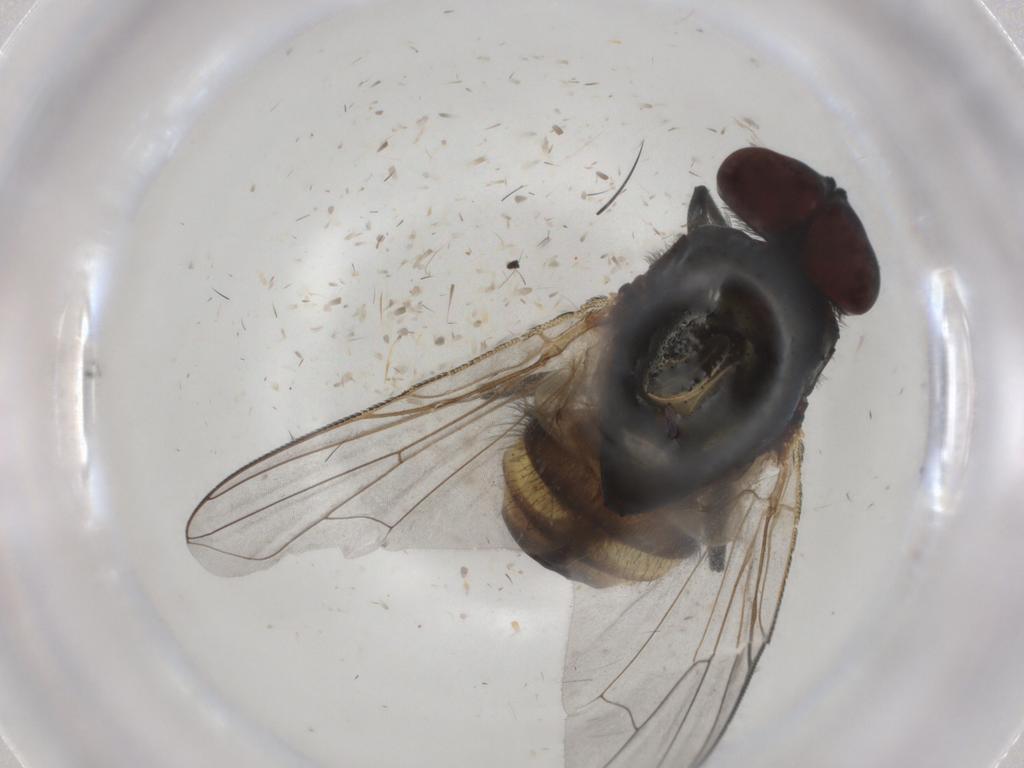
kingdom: Animalia
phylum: Arthropoda
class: Insecta
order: Diptera
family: Muscidae
